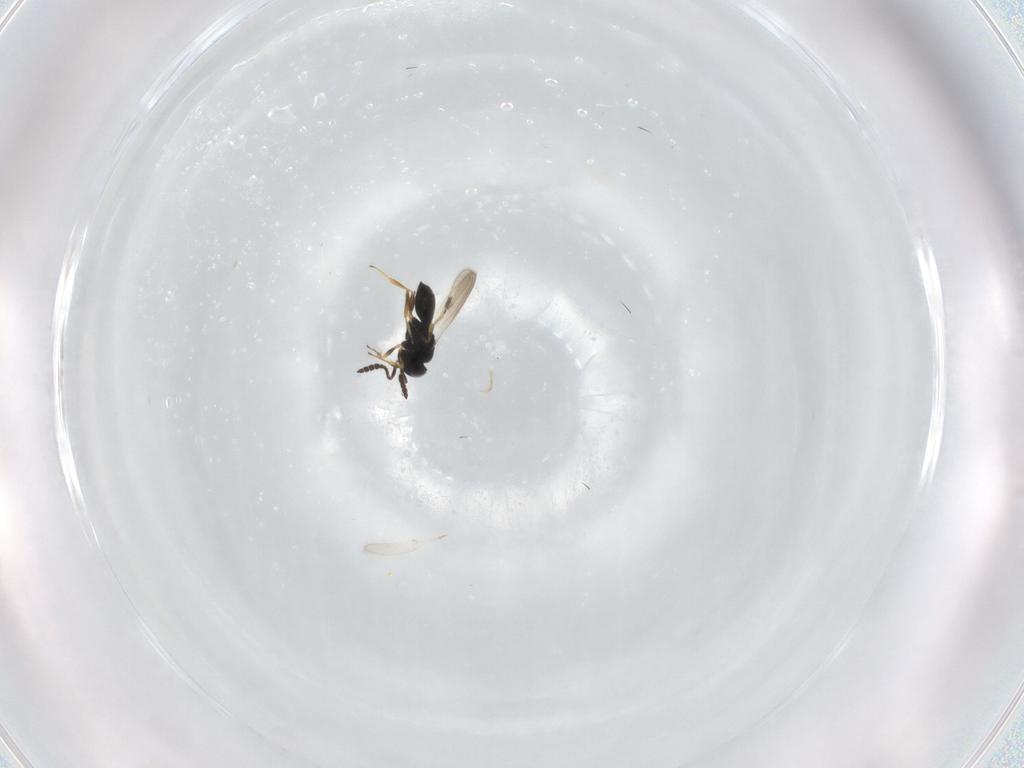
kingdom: Animalia
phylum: Arthropoda
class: Insecta
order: Hymenoptera
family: Scelionidae
